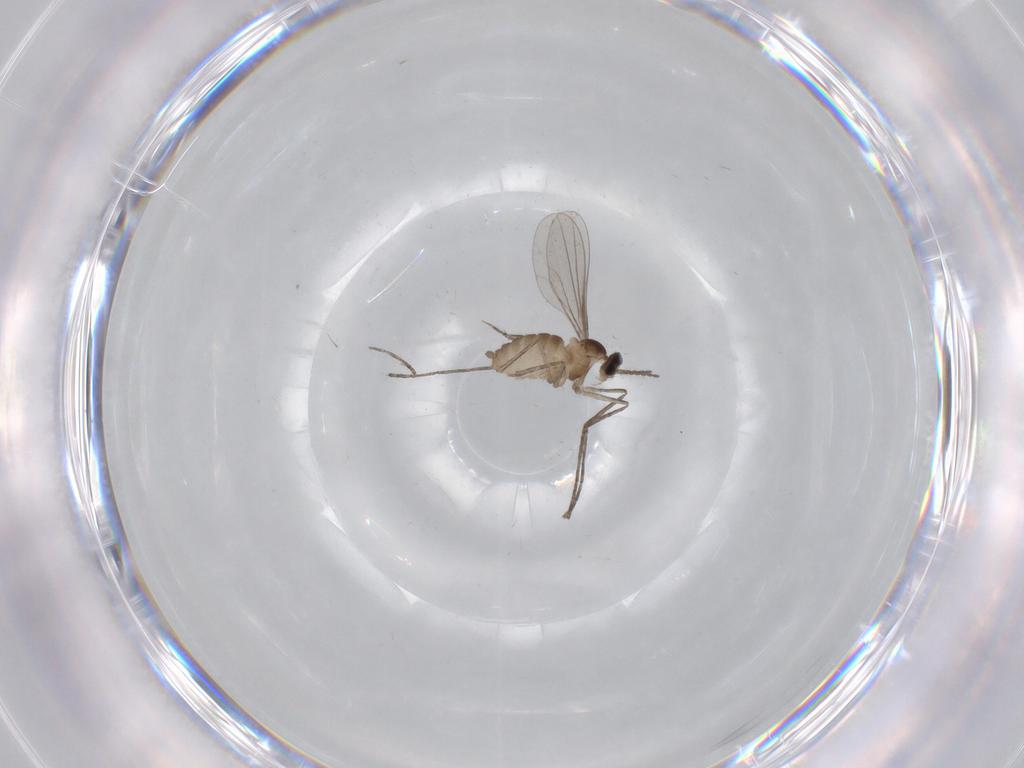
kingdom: Animalia
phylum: Arthropoda
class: Insecta
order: Diptera
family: Cecidomyiidae
